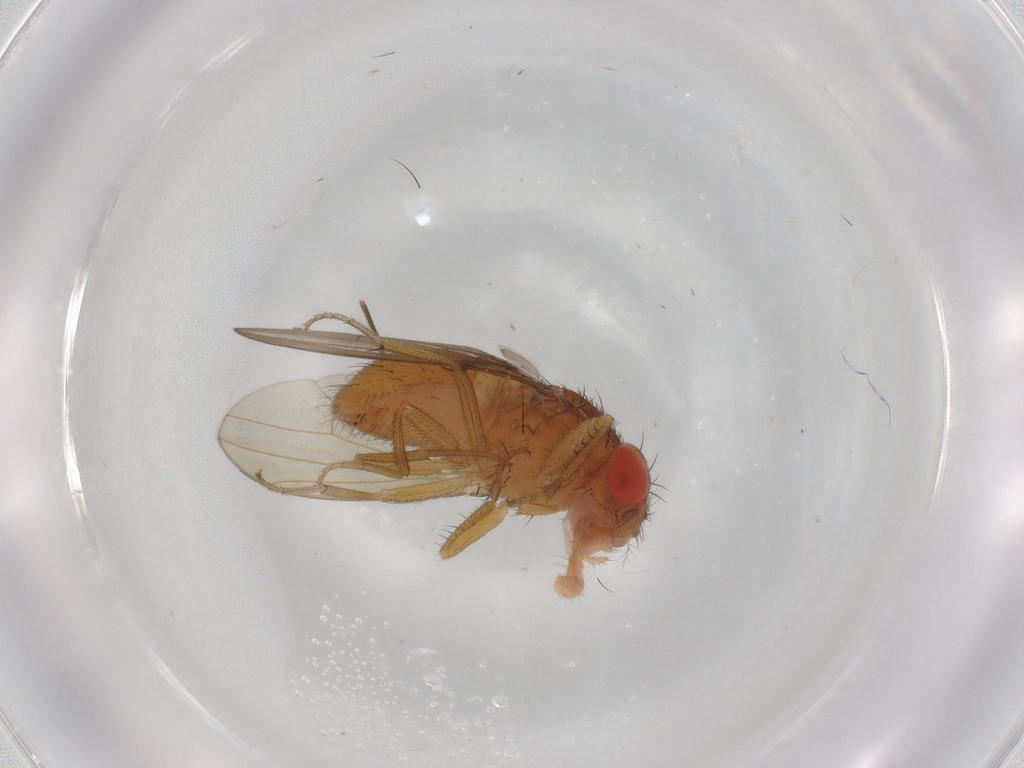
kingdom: Animalia
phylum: Arthropoda
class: Insecta
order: Diptera
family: Drosophilidae
